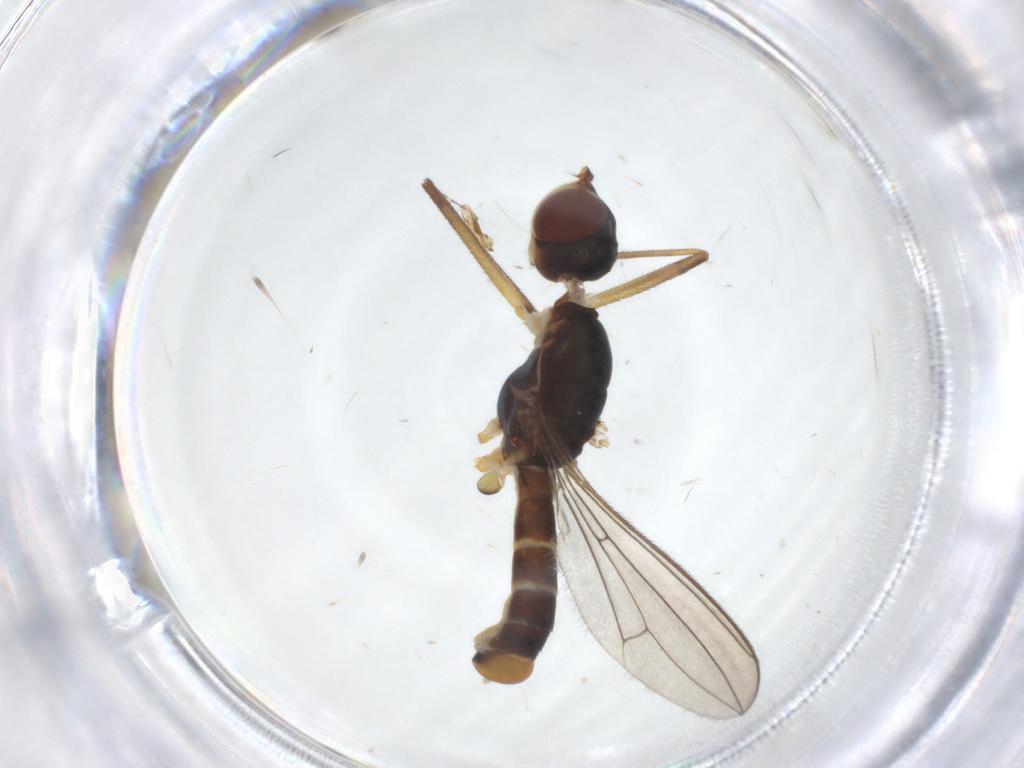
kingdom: Animalia
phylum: Arthropoda
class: Insecta
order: Diptera
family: Micropezidae
